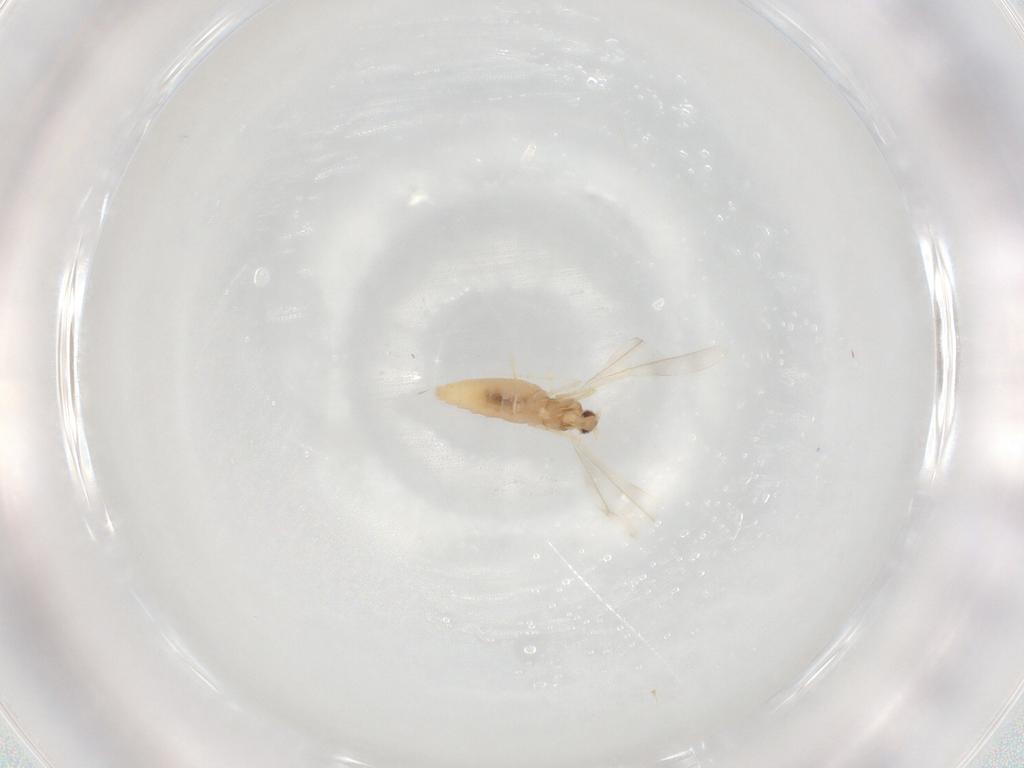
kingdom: Animalia
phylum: Arthropoda
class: Insecta
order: Diptera
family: Cecidomyiidae
